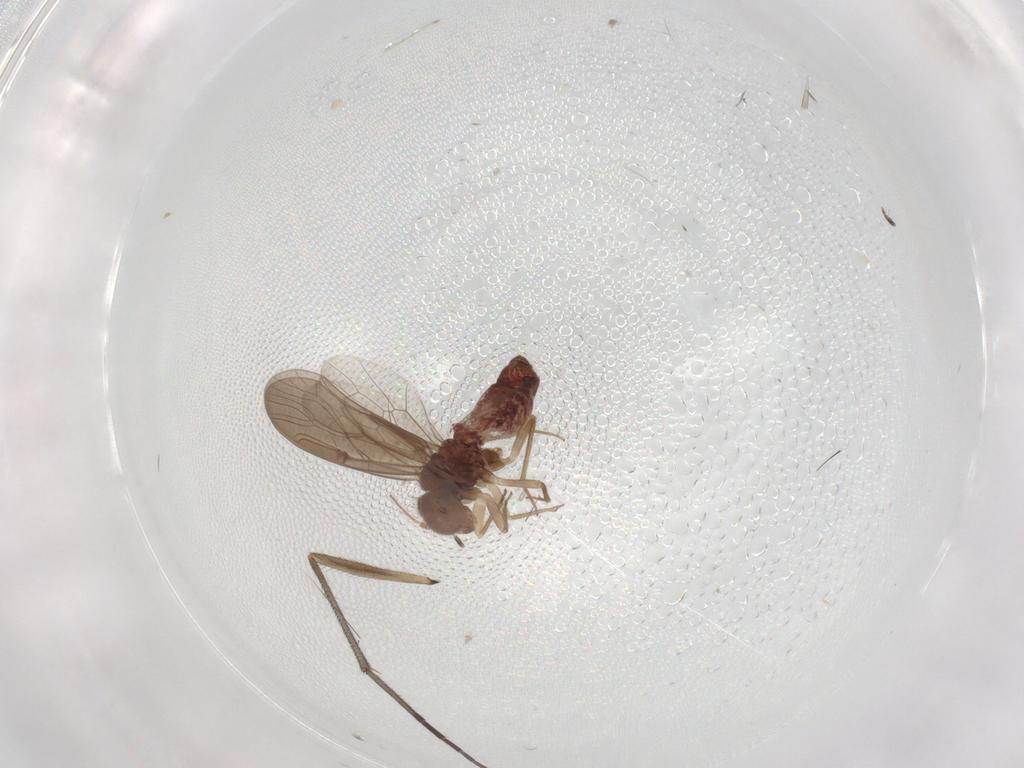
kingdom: Animalia
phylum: Arthropoda
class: Insecta
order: Psocodea
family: Ectopsocidae
